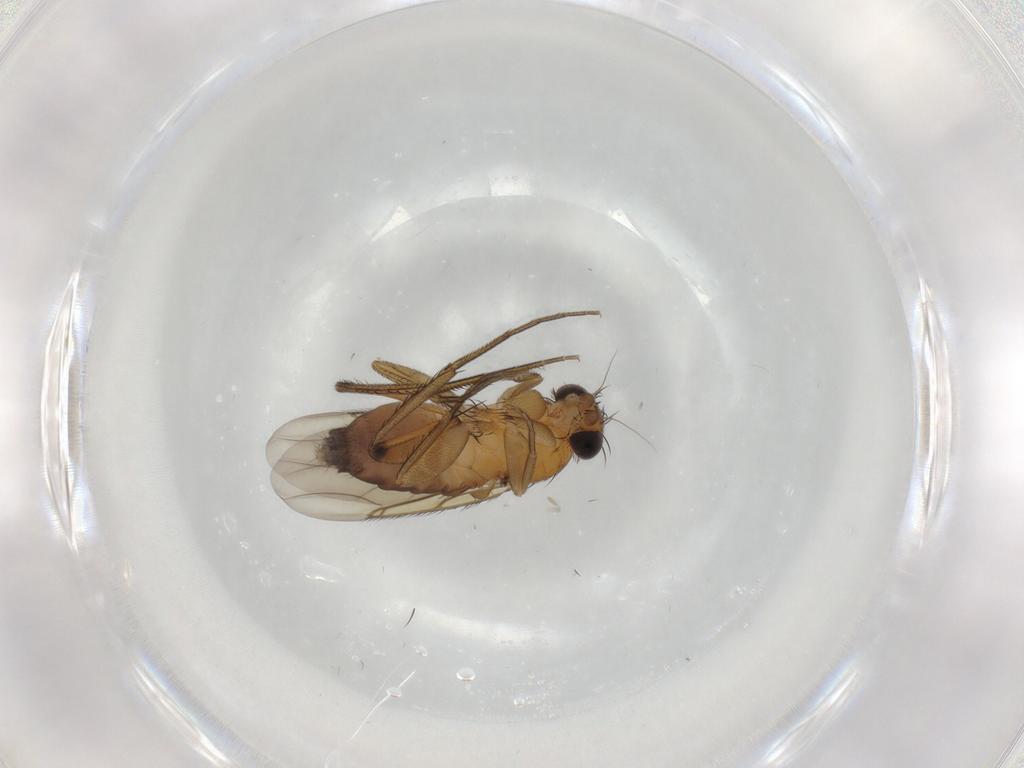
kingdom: Animalia
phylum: Arthropoda
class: Insecta
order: Diptera
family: Phoridae
